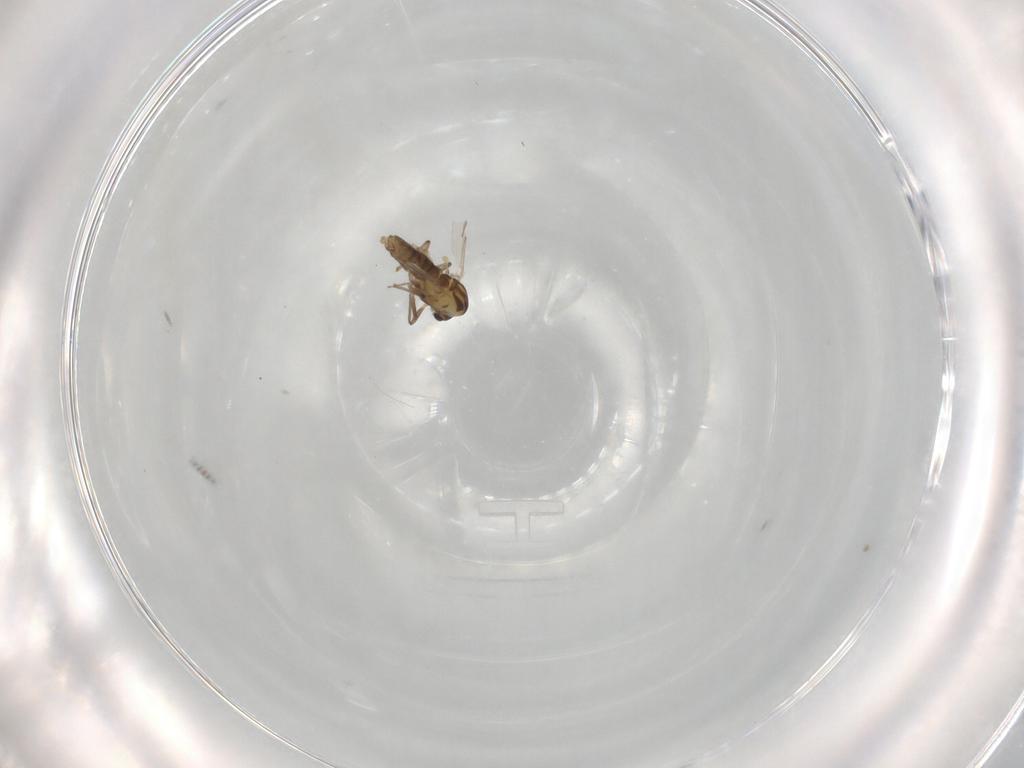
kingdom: Animalia
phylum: Arthropoda
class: Insecta
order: Diptera
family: Chironomidae
